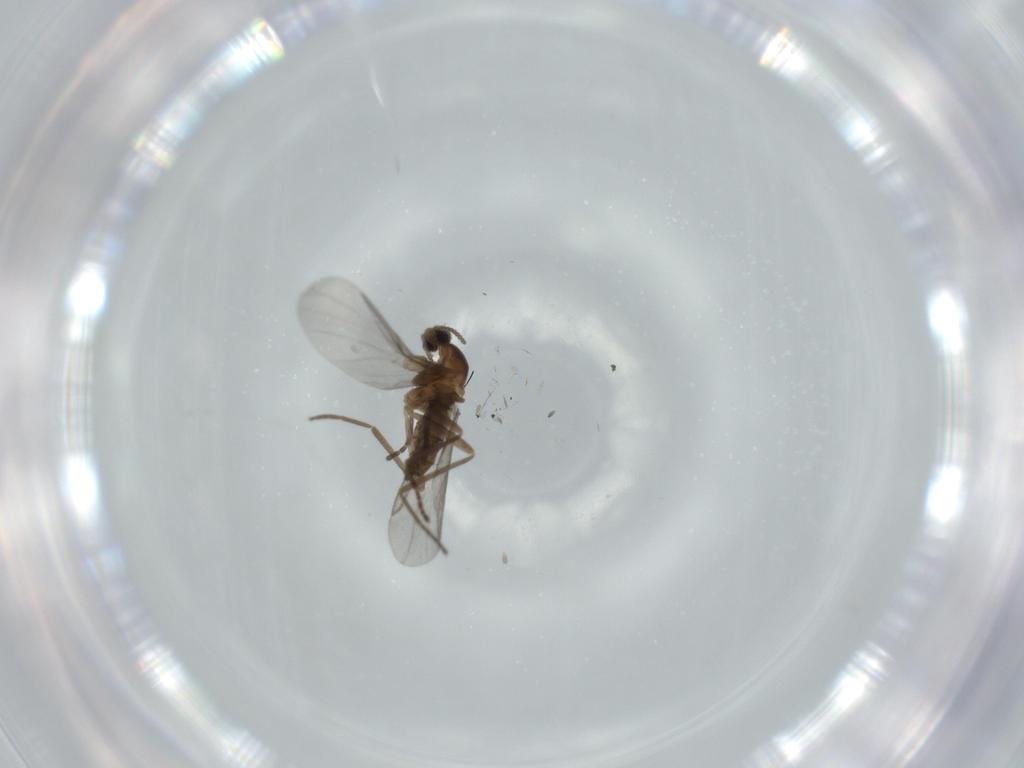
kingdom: Animalia
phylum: Arthropoda
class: Insecta
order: Diptera
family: Cecidomyiidae
